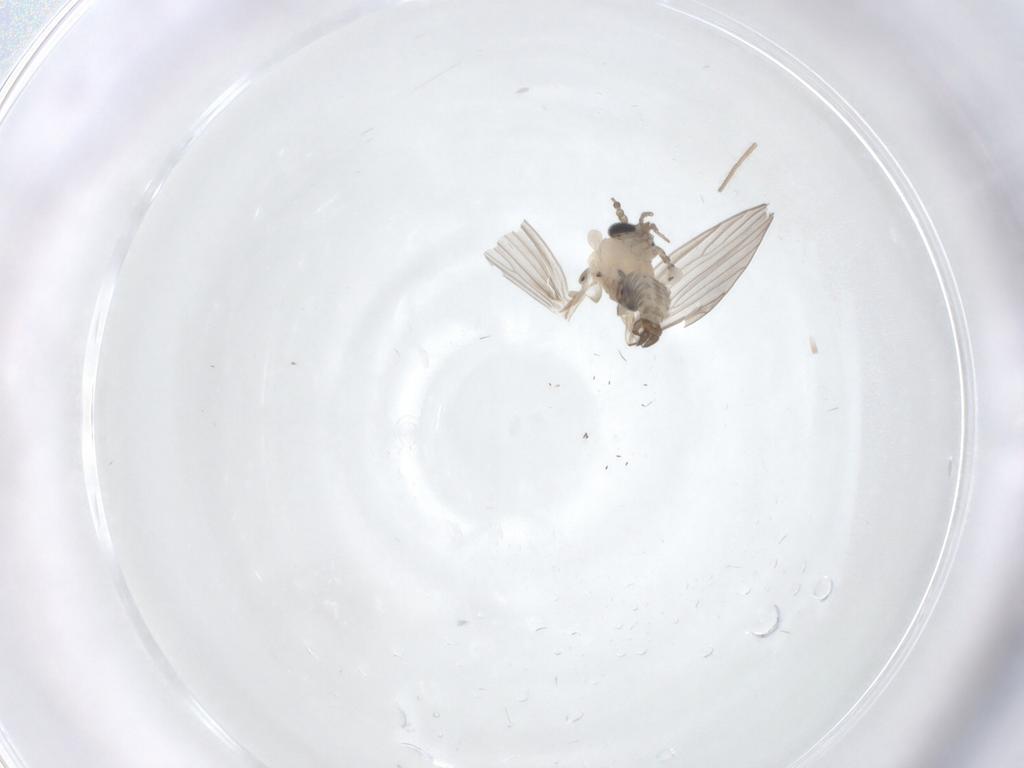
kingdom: Animalia
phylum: Arthropoda
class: Insecta
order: Diptera
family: Psychodidae
